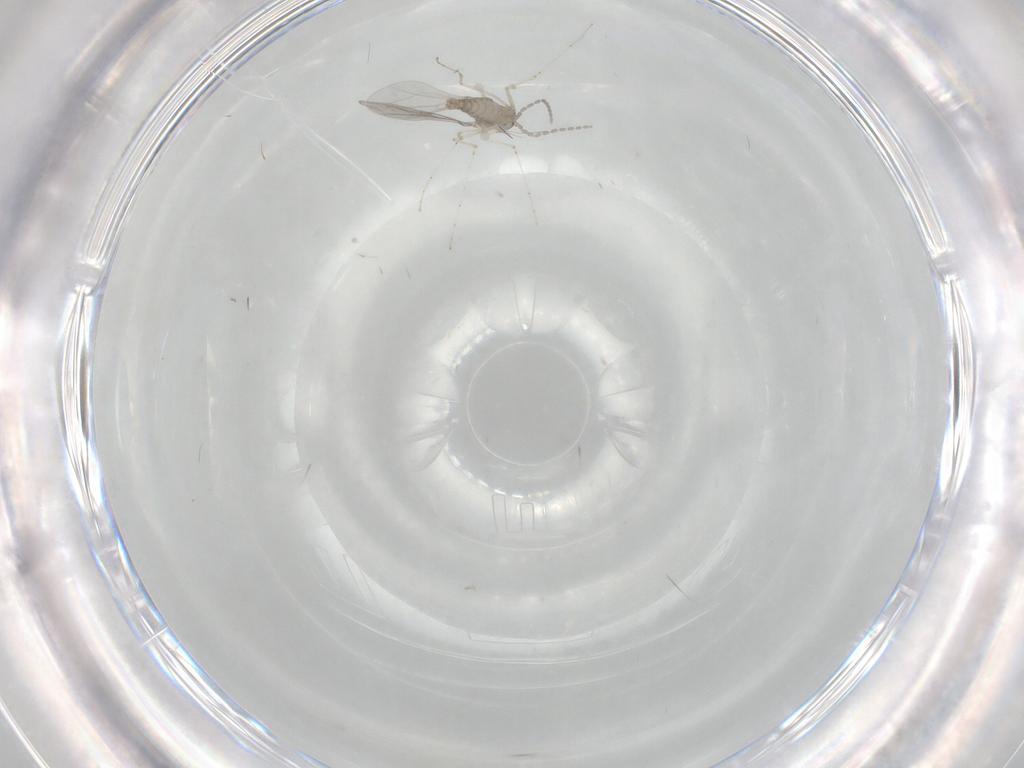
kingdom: Animalia
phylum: Arthropoda
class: Insecta
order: Diptera
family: Cecidomyiidae
